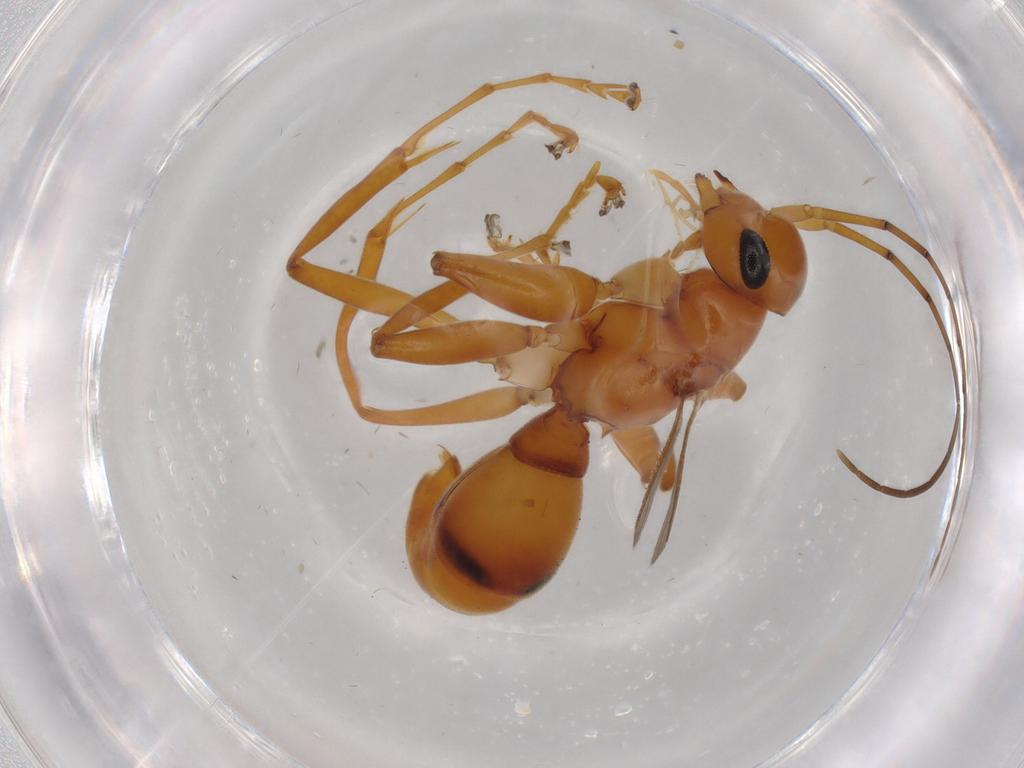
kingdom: Animalia
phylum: Arthropoda
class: Insecta
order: Hymenoptera
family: Rhopalosomatidae
